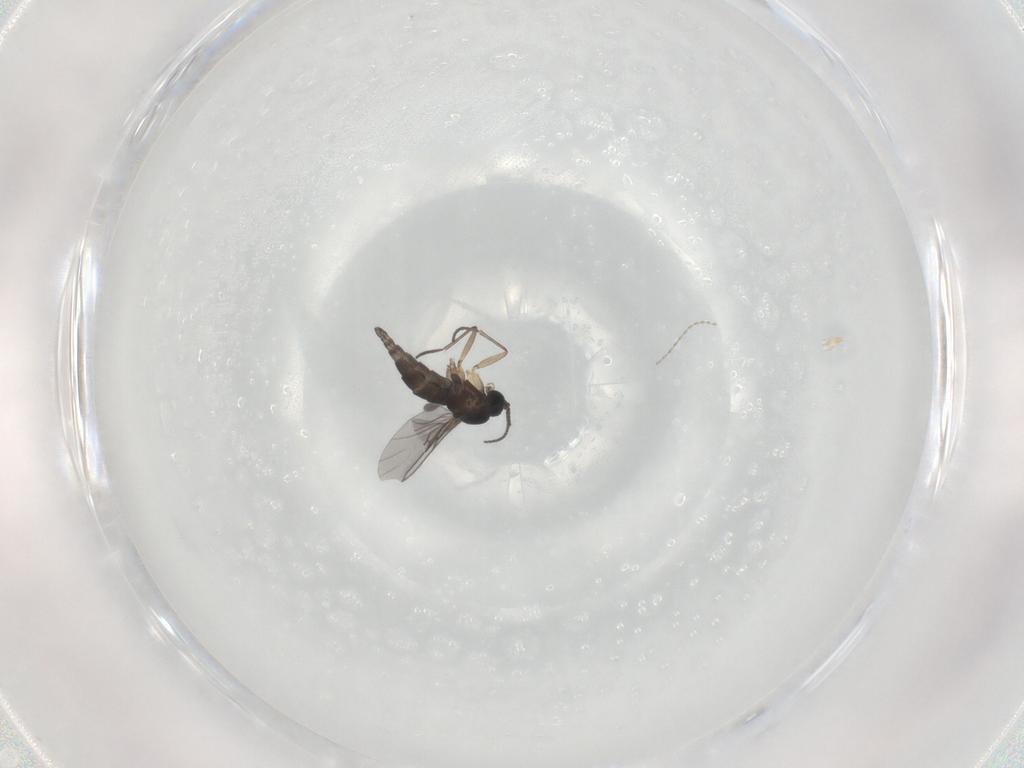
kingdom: Animalia
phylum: Arthropoda
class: Insecta
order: Diptera
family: Sciaridae
